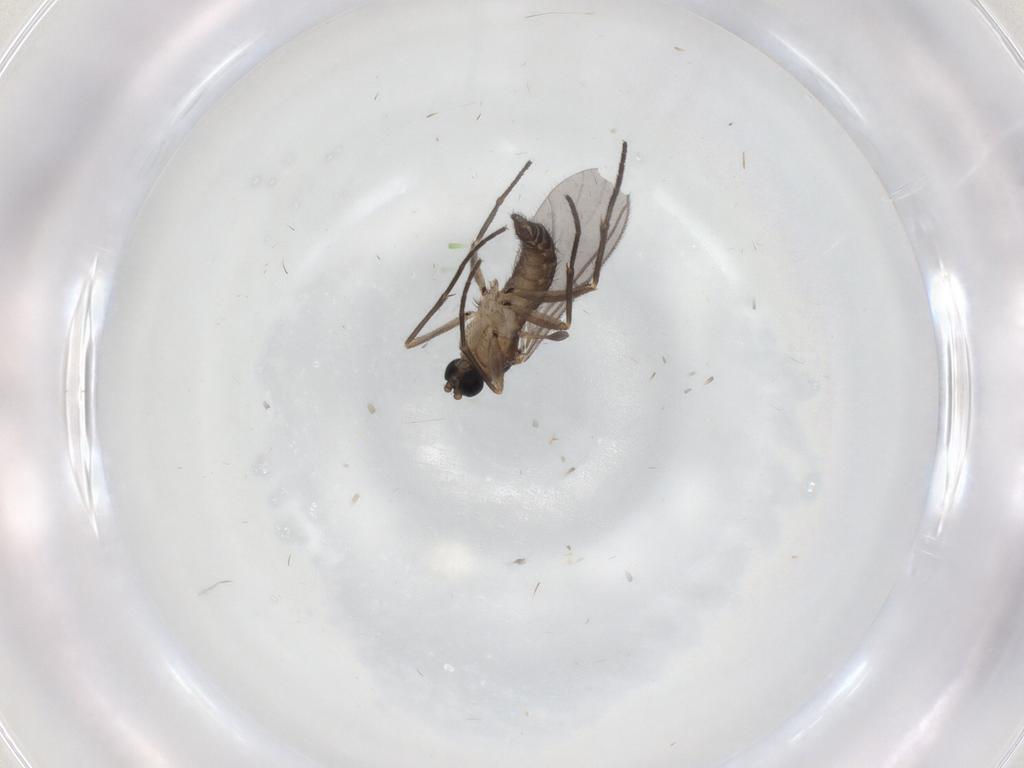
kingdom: Animalia
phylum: Arthropoda
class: Insecta
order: Diptera
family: Sciaridae
